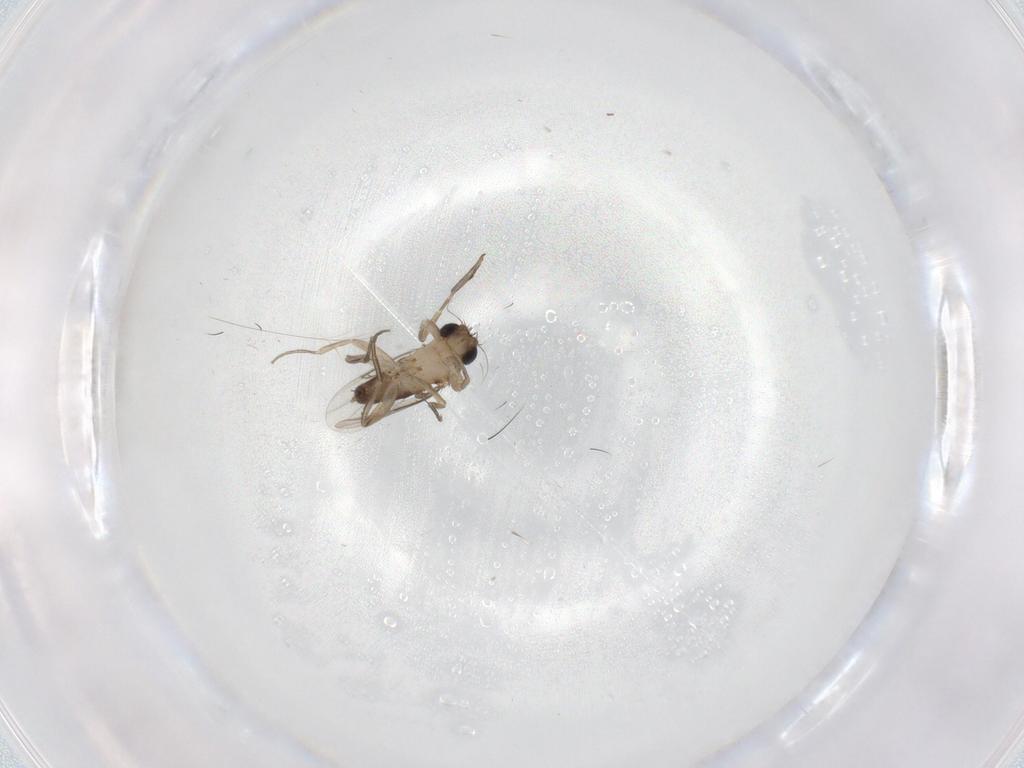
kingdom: Animalia
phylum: Arthropoda
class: Insecta
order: Diptera
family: Phoridae
